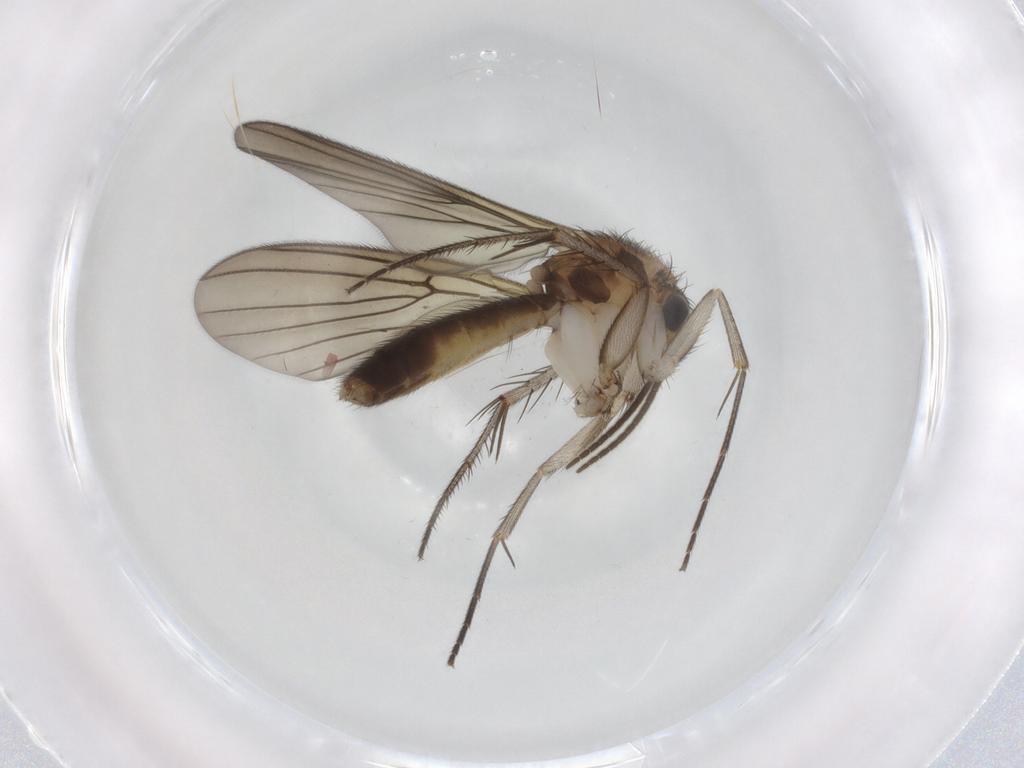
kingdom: Animalia
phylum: Arthropoda
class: Insecta
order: Diptera
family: Mycetophilidae
